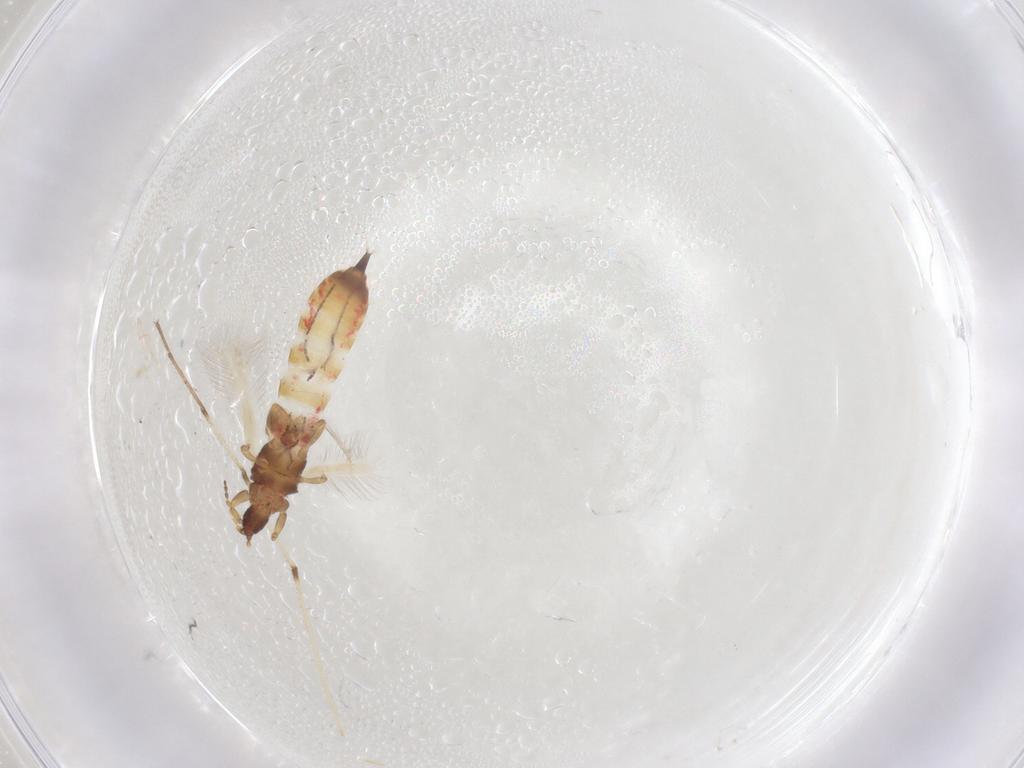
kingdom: Animalia
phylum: Arthropoda
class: Insecta
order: Thysanoptera
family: Phlaeothripidae
